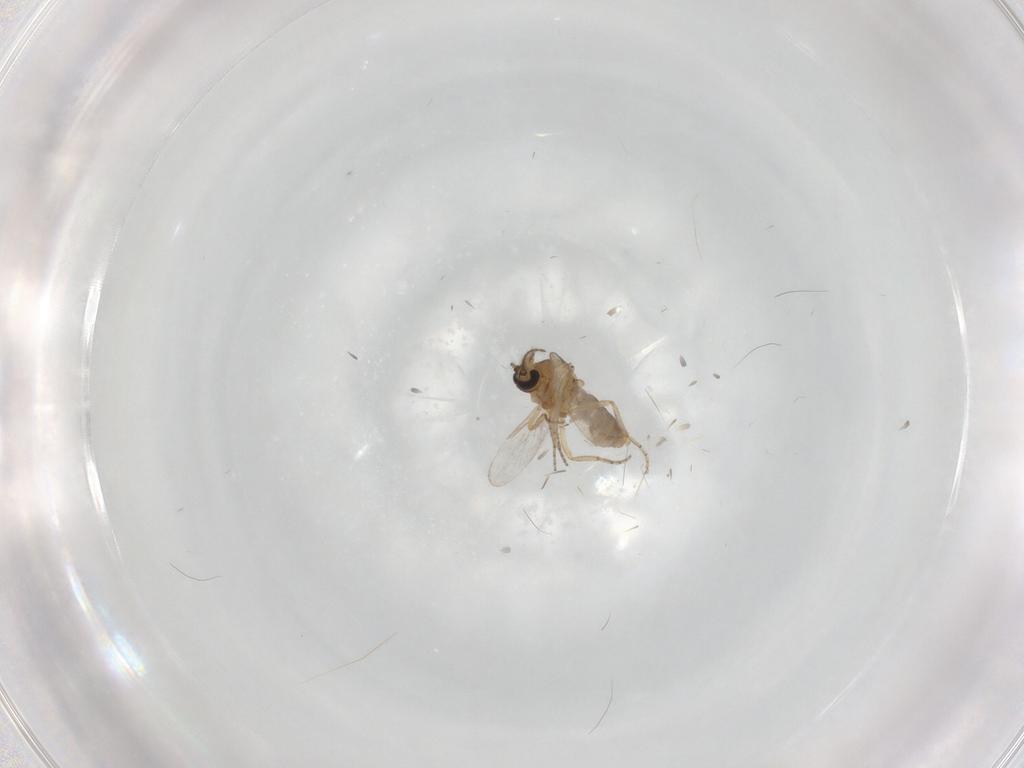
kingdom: Animalia
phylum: Arthropoda
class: Insecta
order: Diptera
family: Ceratopogonidae
